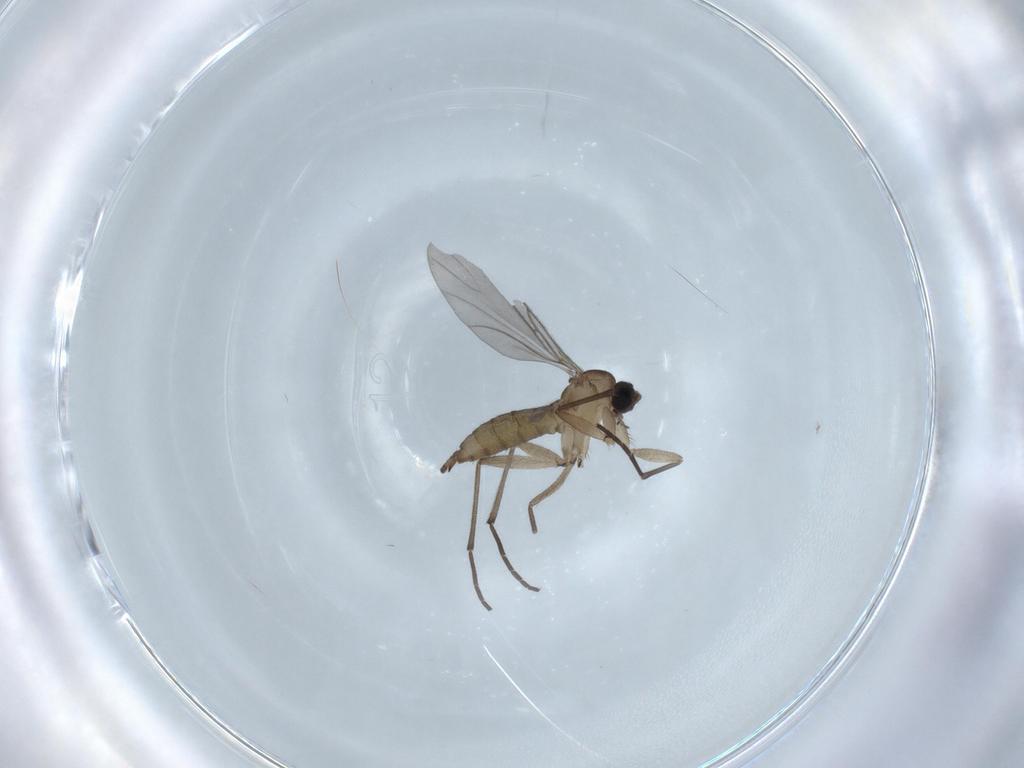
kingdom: Animalia
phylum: Arthropoda
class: Insecta
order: Diptera
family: Sciaridae
